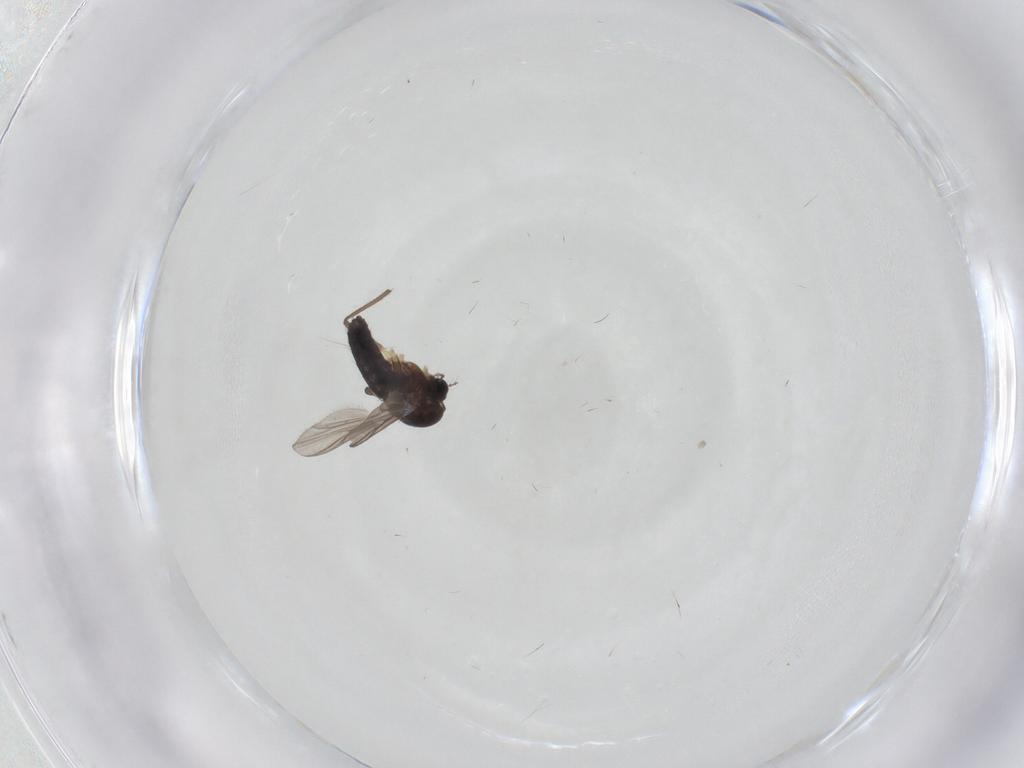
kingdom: Animalia
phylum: Arthropoda
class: Insecta
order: Diptera
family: Chironomidae
